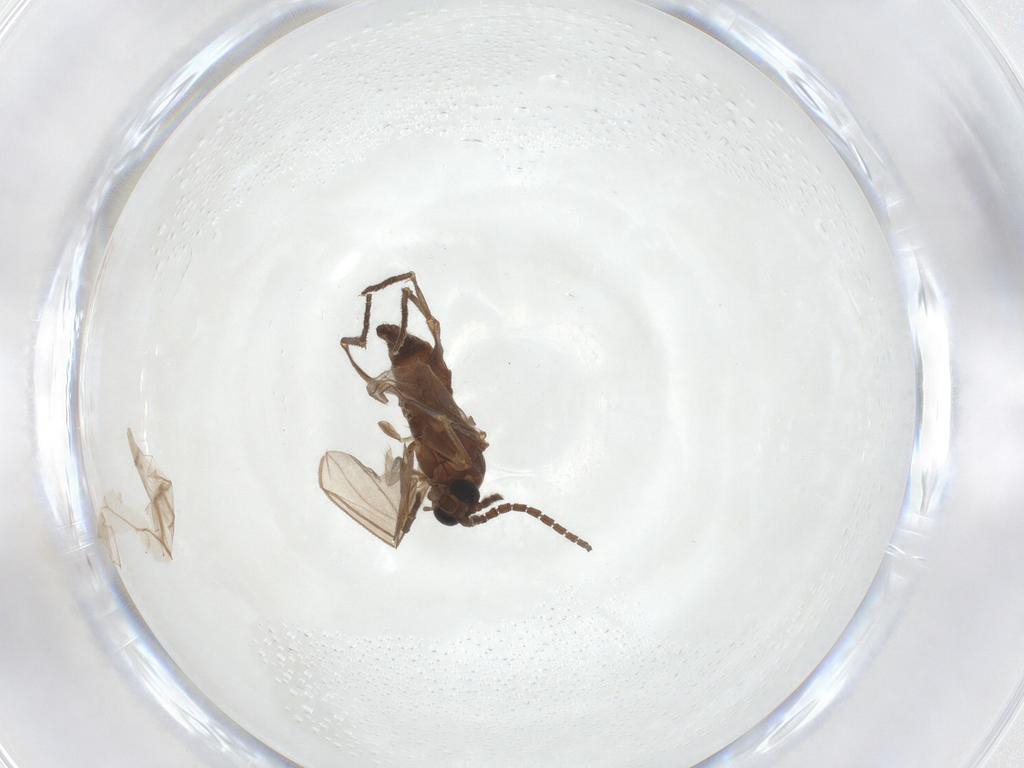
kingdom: Animalia
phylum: Arthropoda
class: Insecta
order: Diptera
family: Sciaridae
